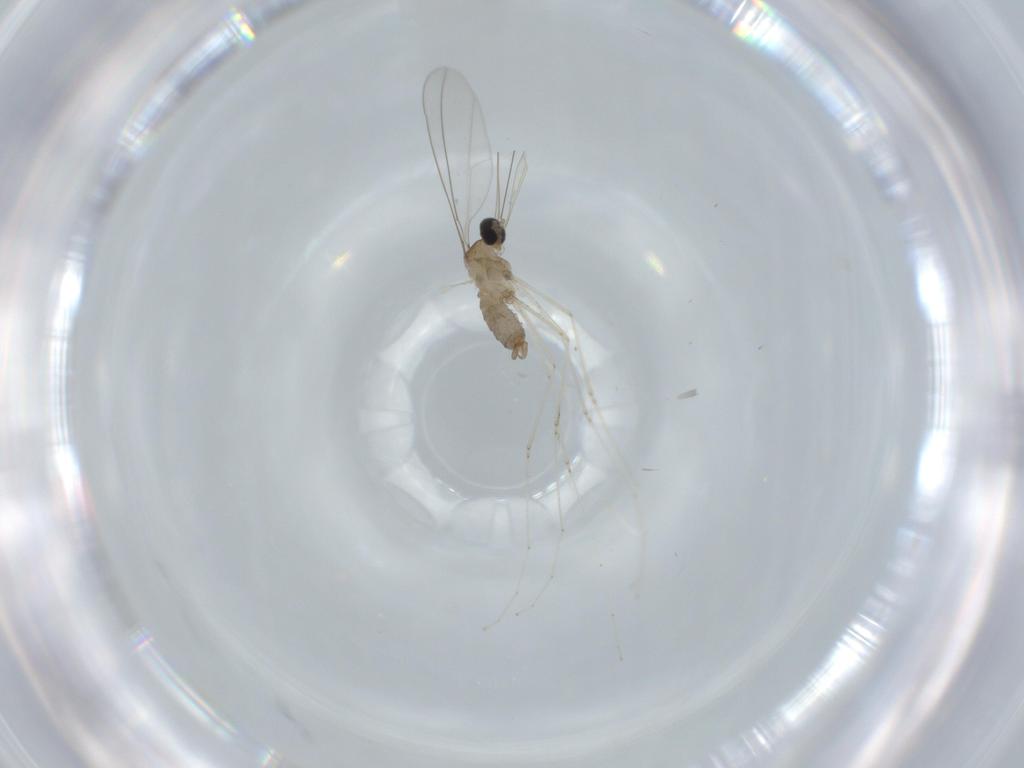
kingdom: Animalia
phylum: Arthropoda
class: Insecta
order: Diptera
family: Cecidomyiidae
